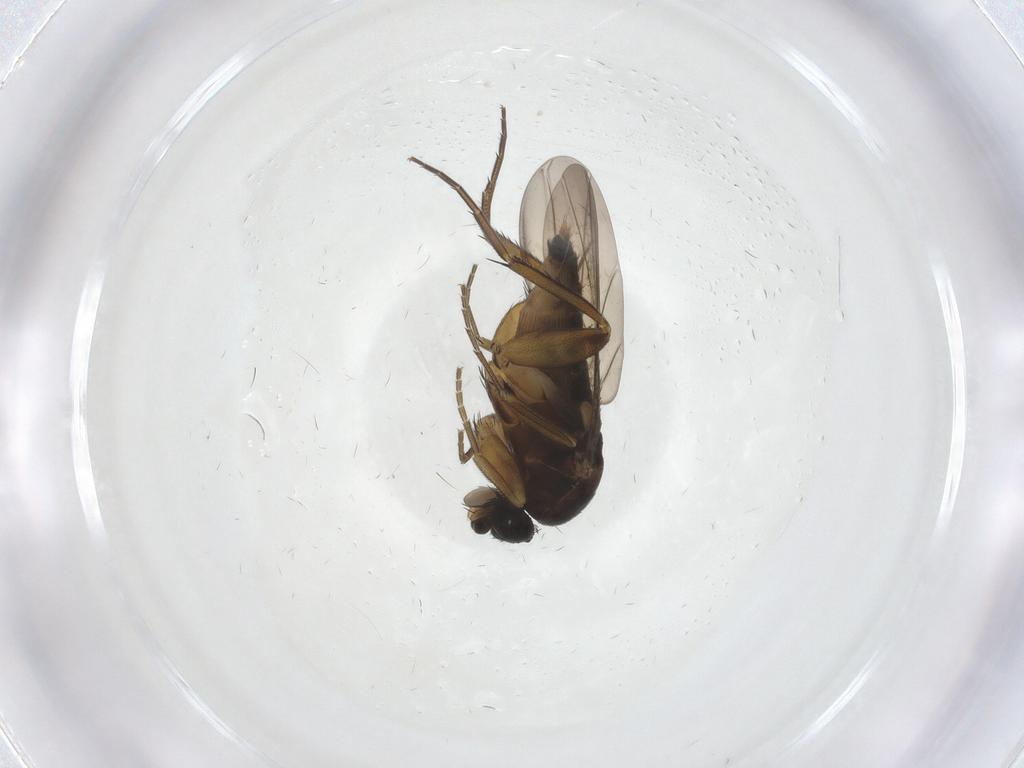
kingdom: Animalia
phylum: Arthropoda
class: Insecta
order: Diptera
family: Phoridae
